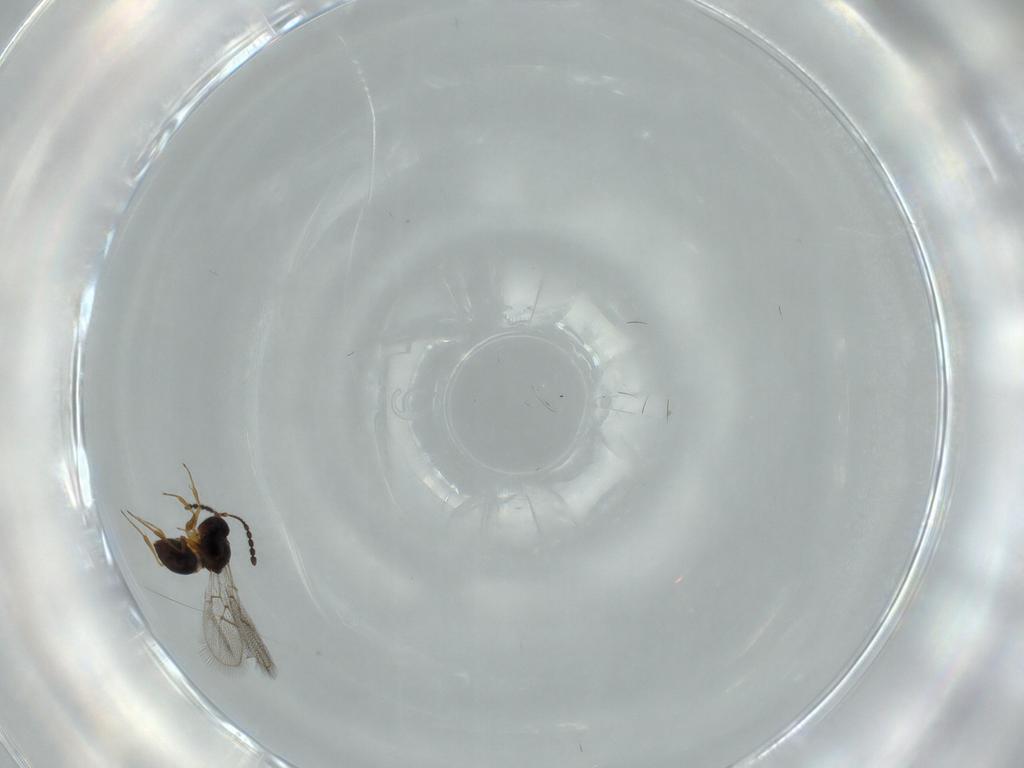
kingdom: Animalia
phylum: Arthropoda
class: Insecta
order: Hymenoptera
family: Figitidae
